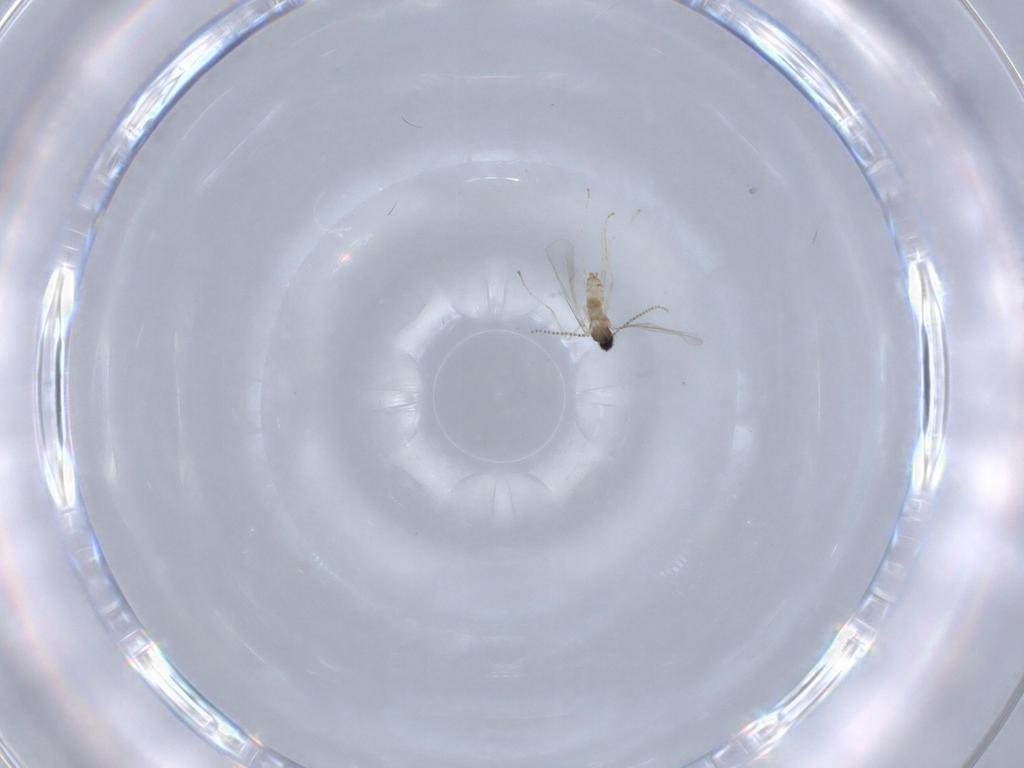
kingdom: Animalia
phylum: Arthropoda
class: Insecta
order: Diptera
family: Cecidomyiidae
